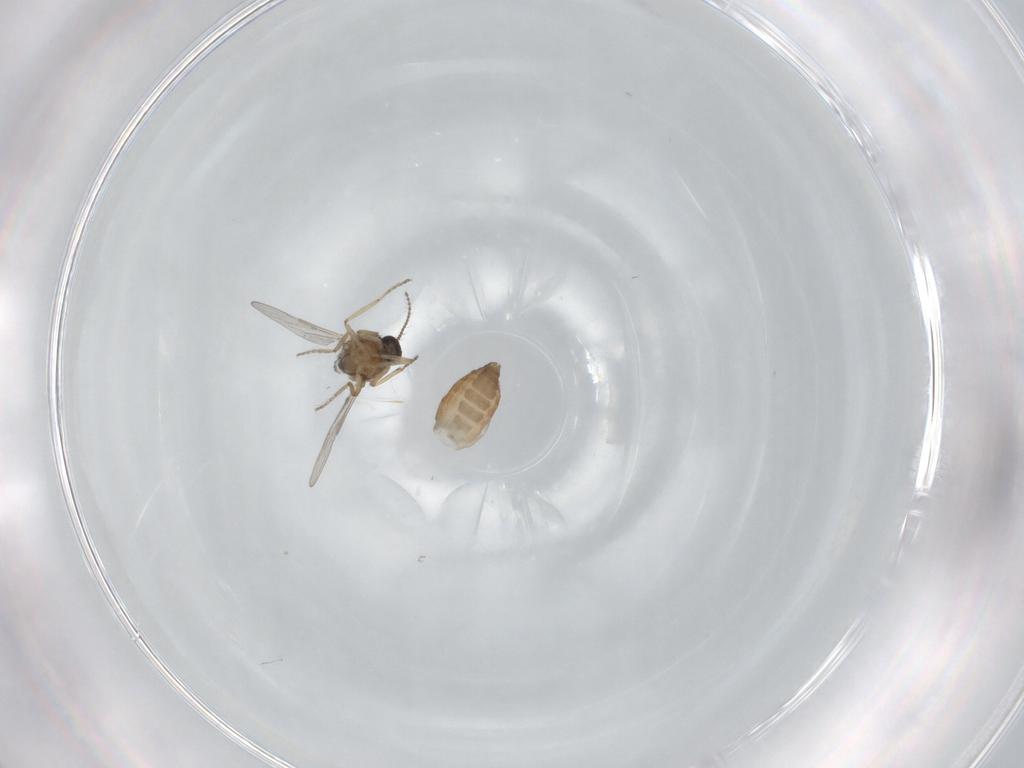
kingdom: Animalia
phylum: Arthropoda
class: Insecta
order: Diptera
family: Ceratopogonidae
